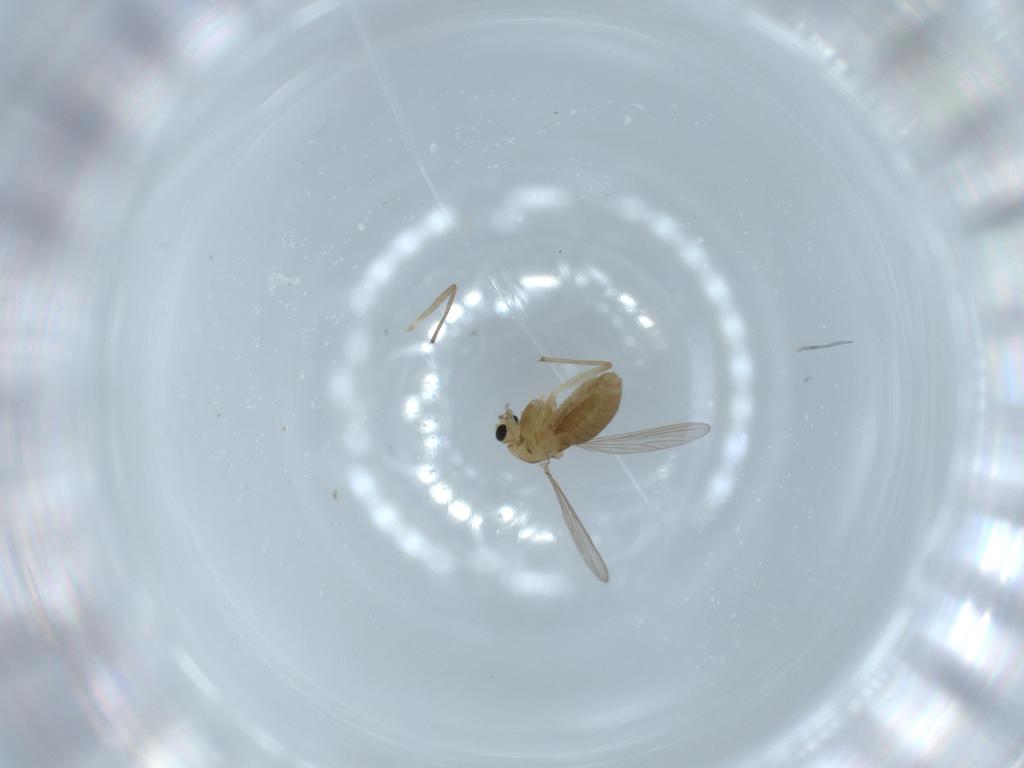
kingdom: Animalia
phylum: Arthropoda
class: Insecta
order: Diptera
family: Chironomidae
